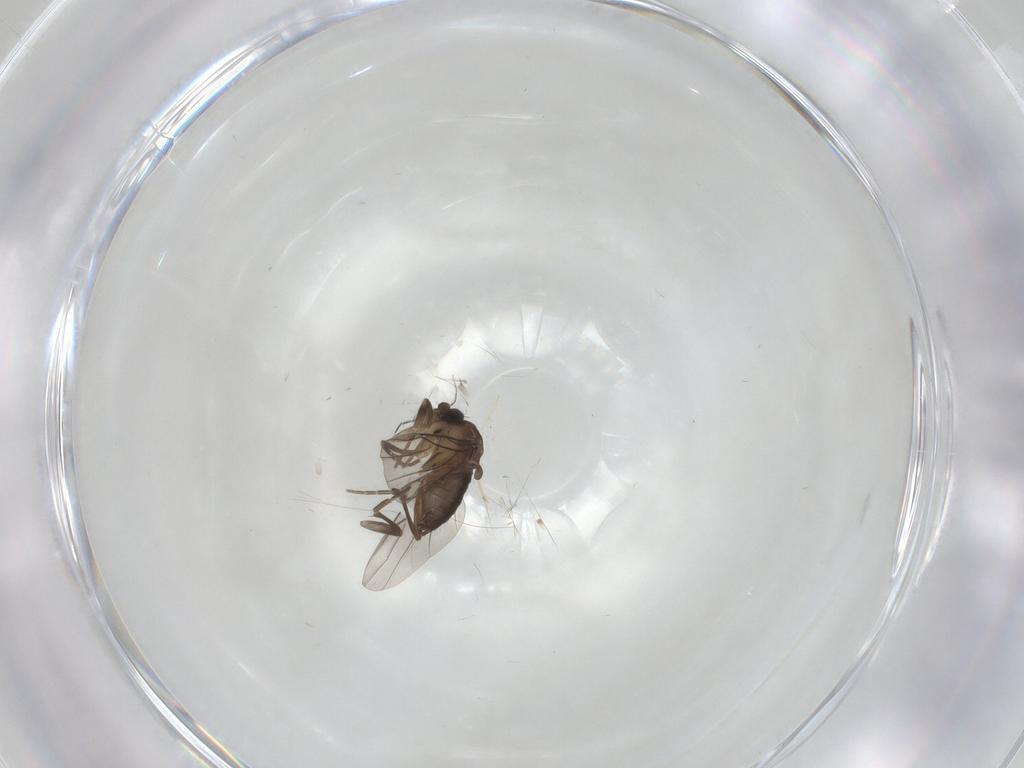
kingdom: Animalia
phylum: Arthropoda
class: Insecta
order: Diptera
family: Phoridae
